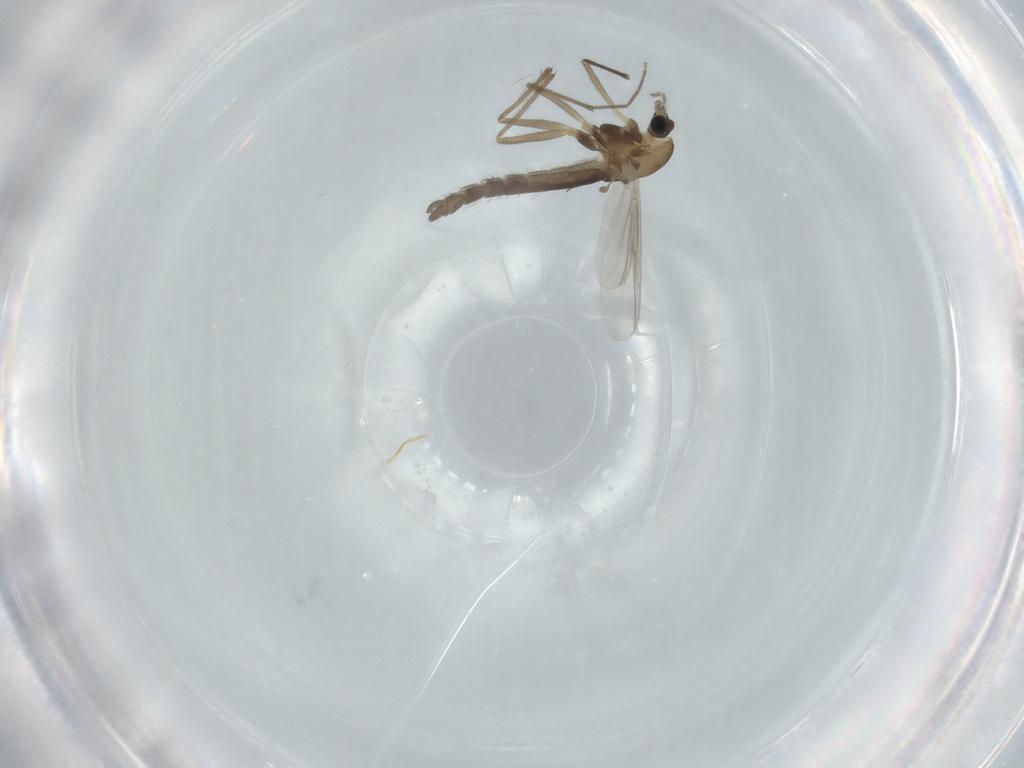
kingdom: Animalia
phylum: Arthropoda
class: Insecta
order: Diptera
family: Chironomidae
